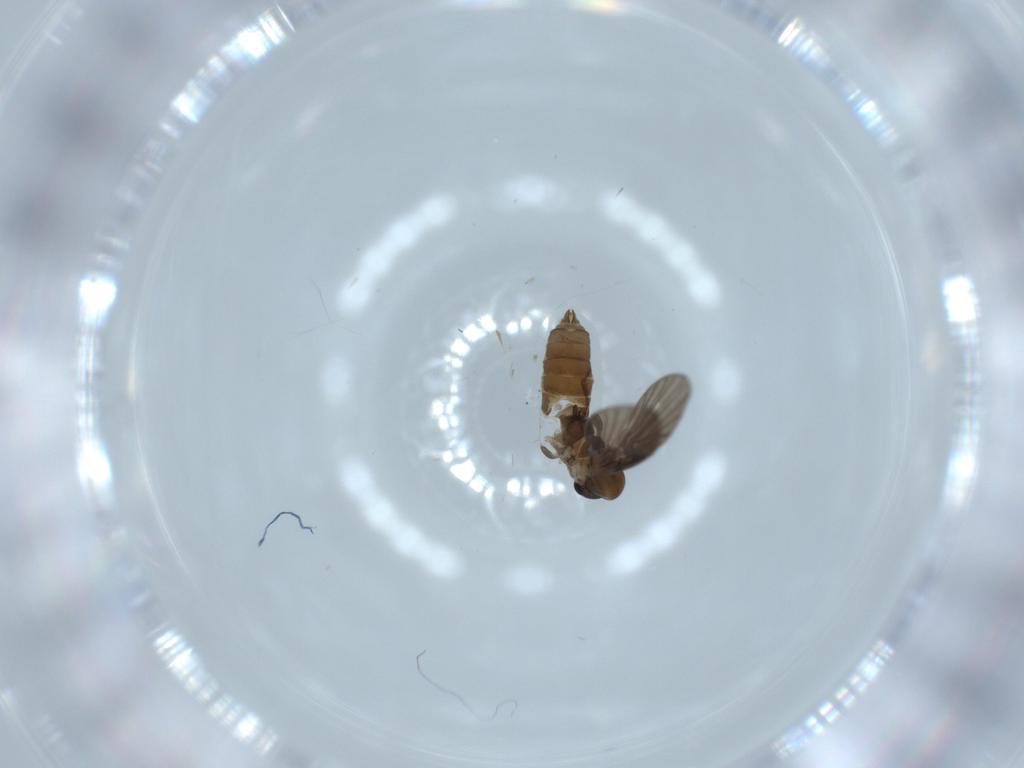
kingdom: Animalia
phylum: Arthropoda
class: Insecta
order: Diptera
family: Psychodidae
